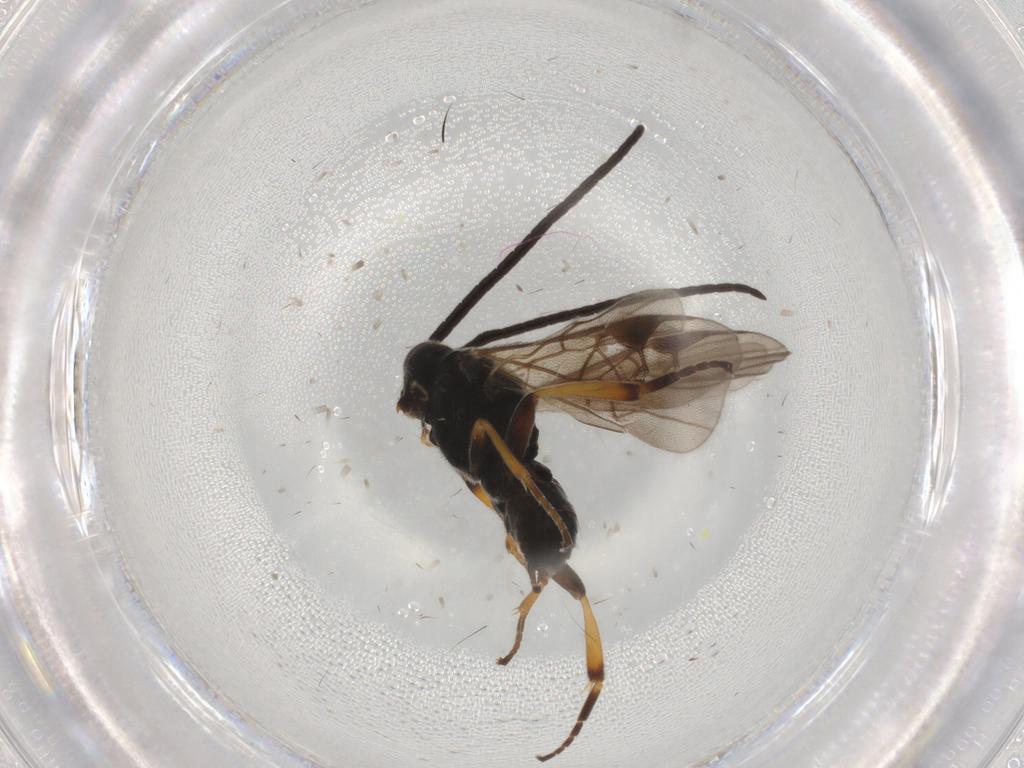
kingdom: Animalia
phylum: Arthropoda
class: Insecta
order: Hymenoptera
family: Braconidae
